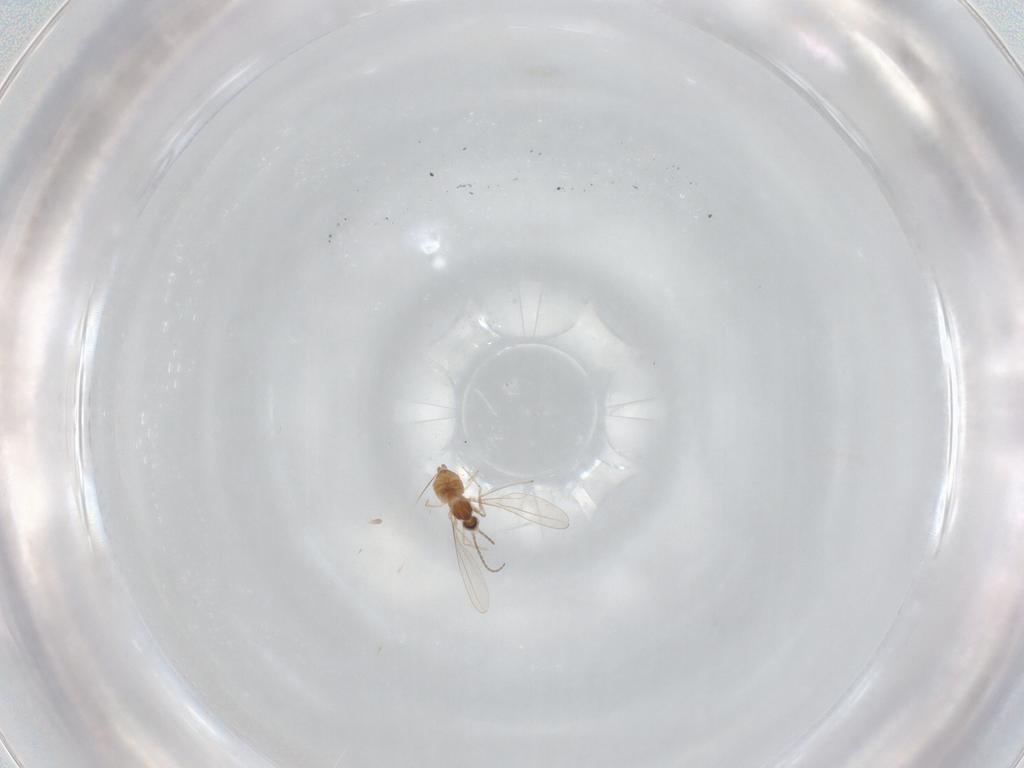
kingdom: Animalia
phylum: Arthropoda
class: Insecta
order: Diptera
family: Cecidomyiidae
